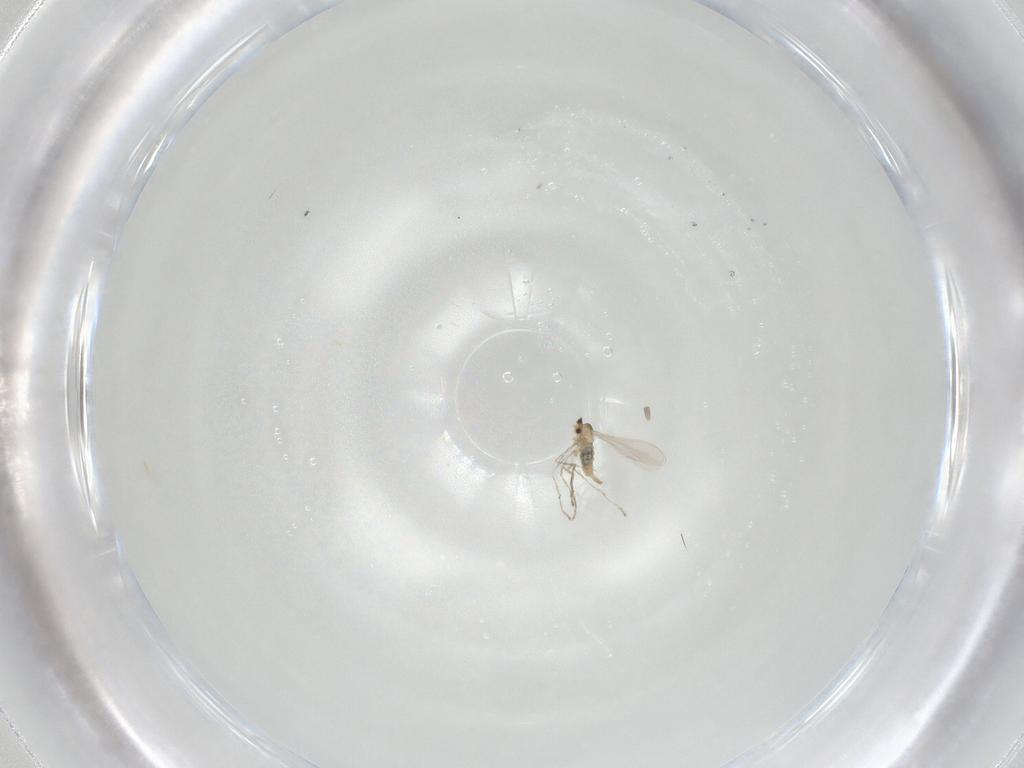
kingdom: Animalia
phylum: Arthropoda
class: Insecta
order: Diptera
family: Cecidomyiidae
